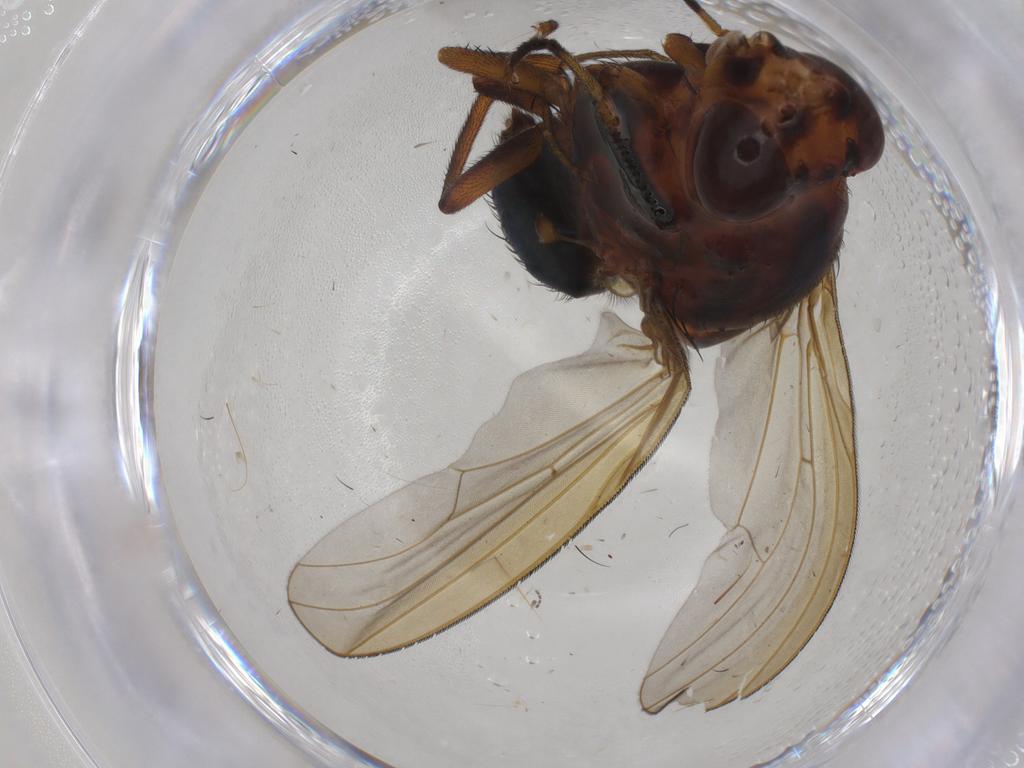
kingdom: Animalia
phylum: Arthropoda
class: Insecta
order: Diptera
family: Lauxaniidae
